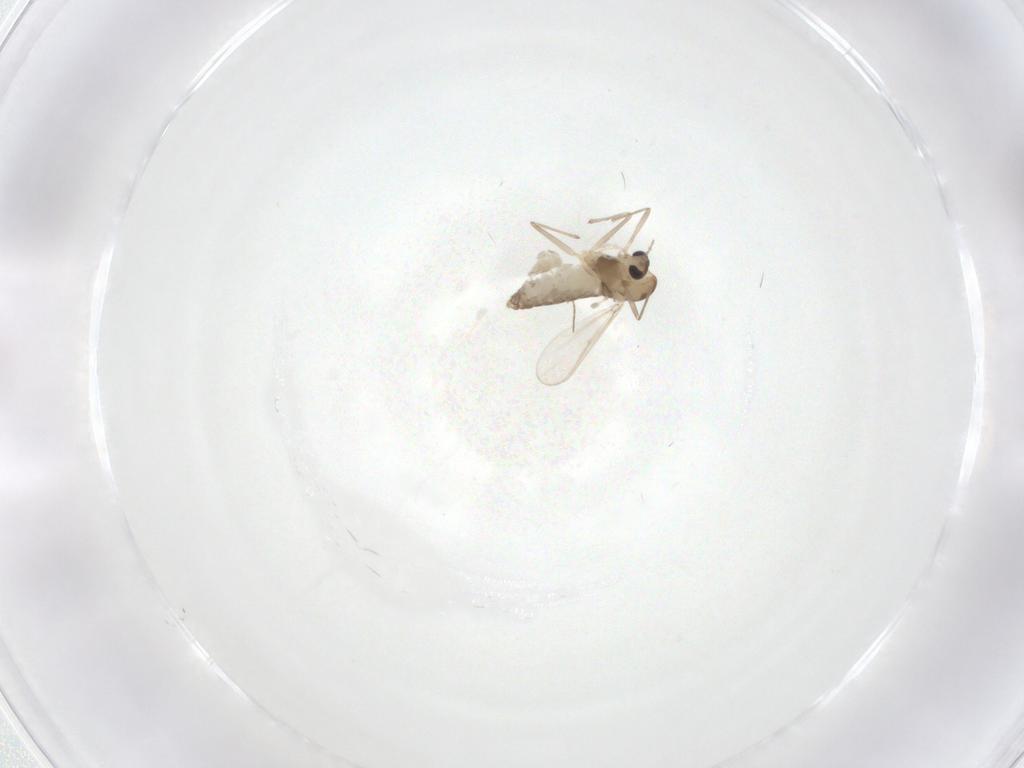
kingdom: Animalia
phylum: Arthropoda
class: Insecta
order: Diptera
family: Chironomidae
